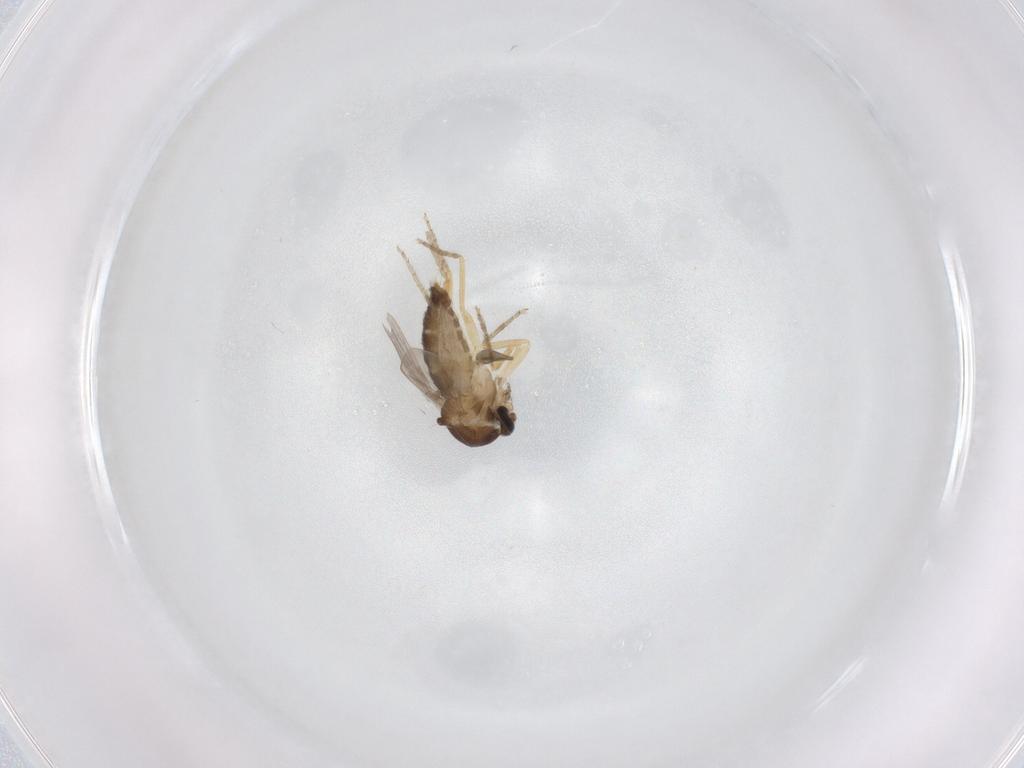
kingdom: Animalia
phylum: Arthropoda
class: Insecta
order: Diptera
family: Ceratopogonidae
